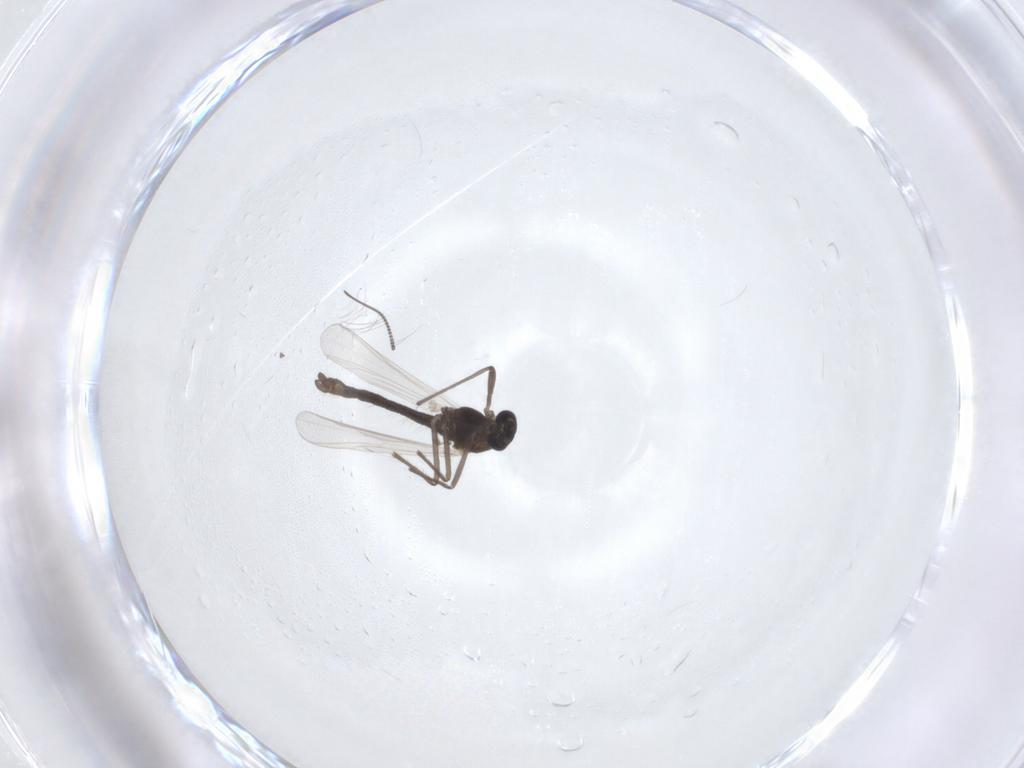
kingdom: Animalia
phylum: Arthropoda
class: Insecta
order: Diptera
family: Chironomidae
